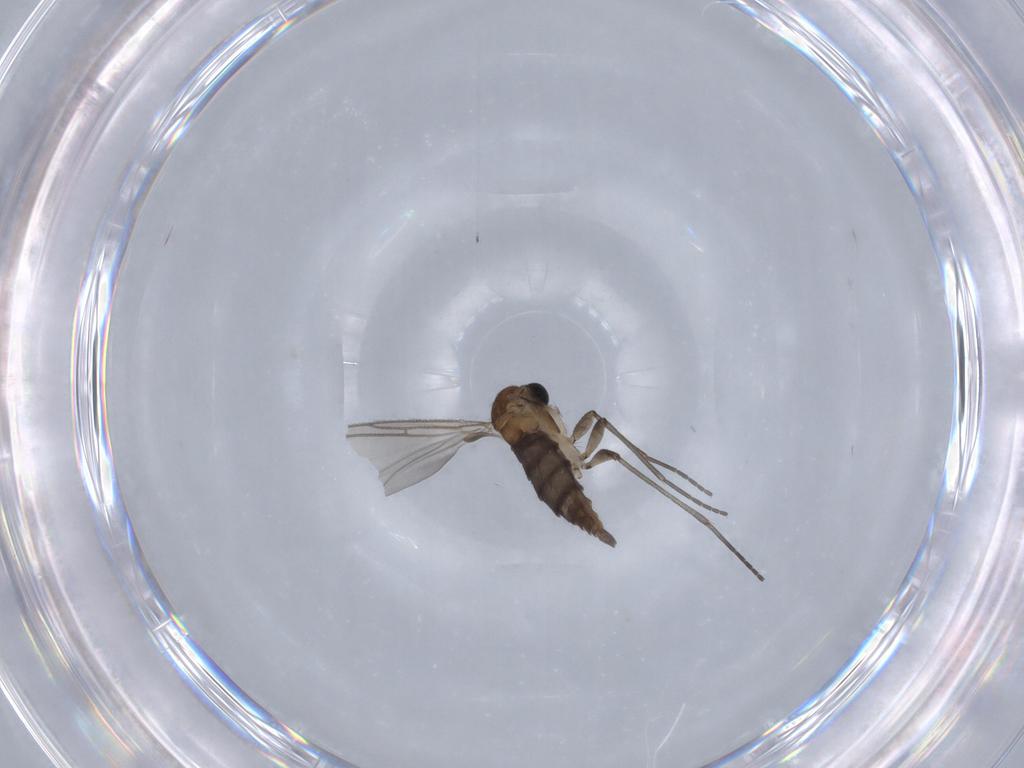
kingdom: Animalia
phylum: Arthropoda
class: Insecta
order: Diptera
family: Sciaridae
